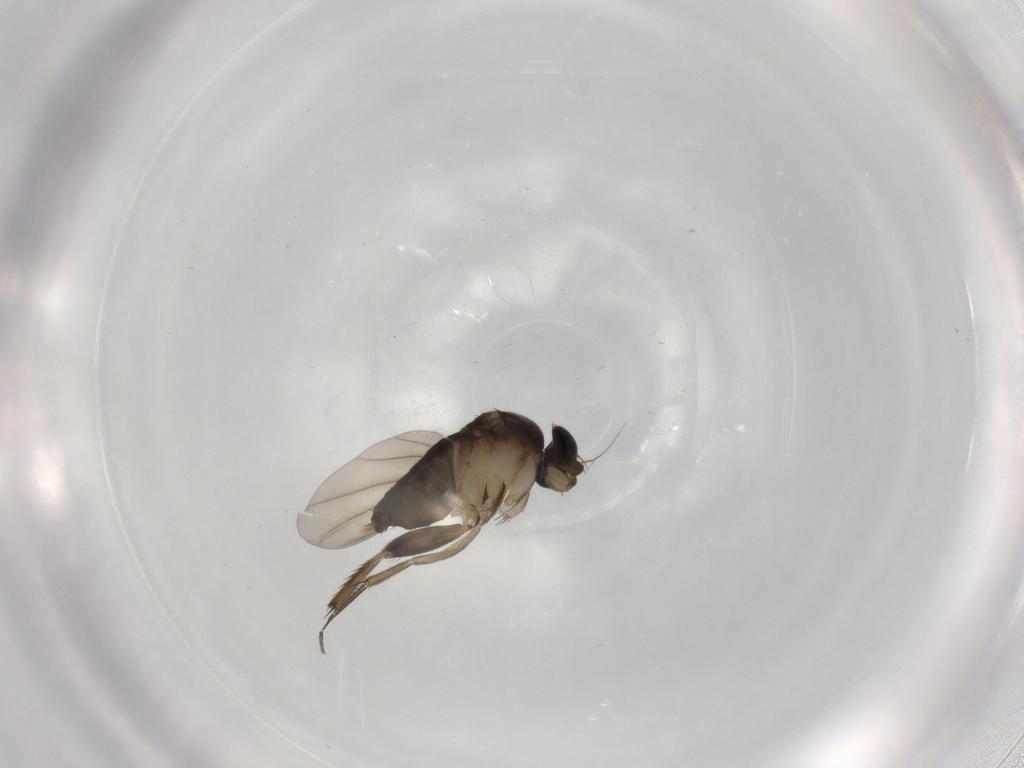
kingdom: Animalia
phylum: Arthropoda
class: Insecta
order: Diptera
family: Phoridae
